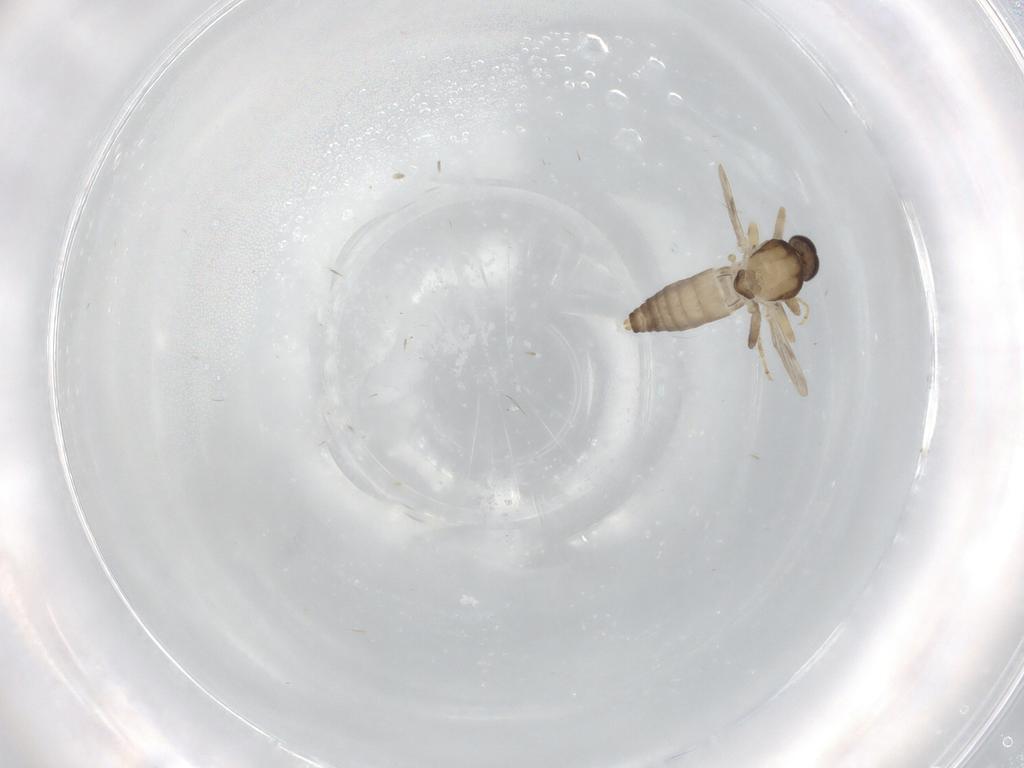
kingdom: Animalia
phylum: Arthropoda
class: Insecta
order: Diptera
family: Ceratopogonidae
